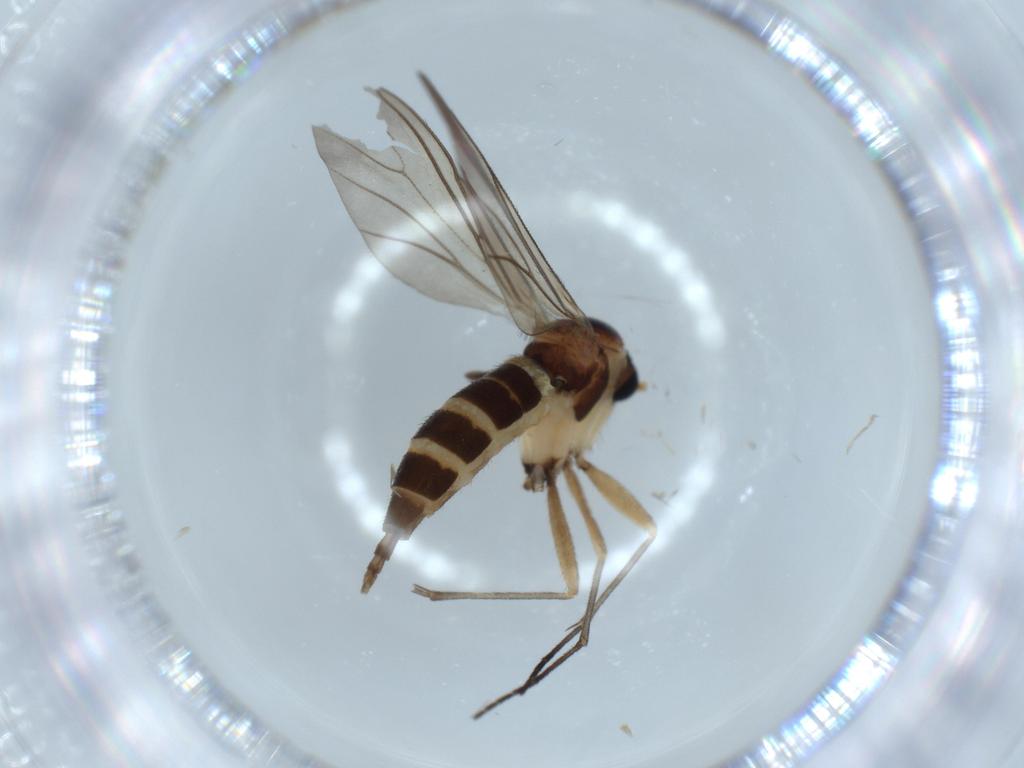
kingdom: Animalia
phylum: Arthropoda
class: Insecta
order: Diptera
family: Sciaridae
